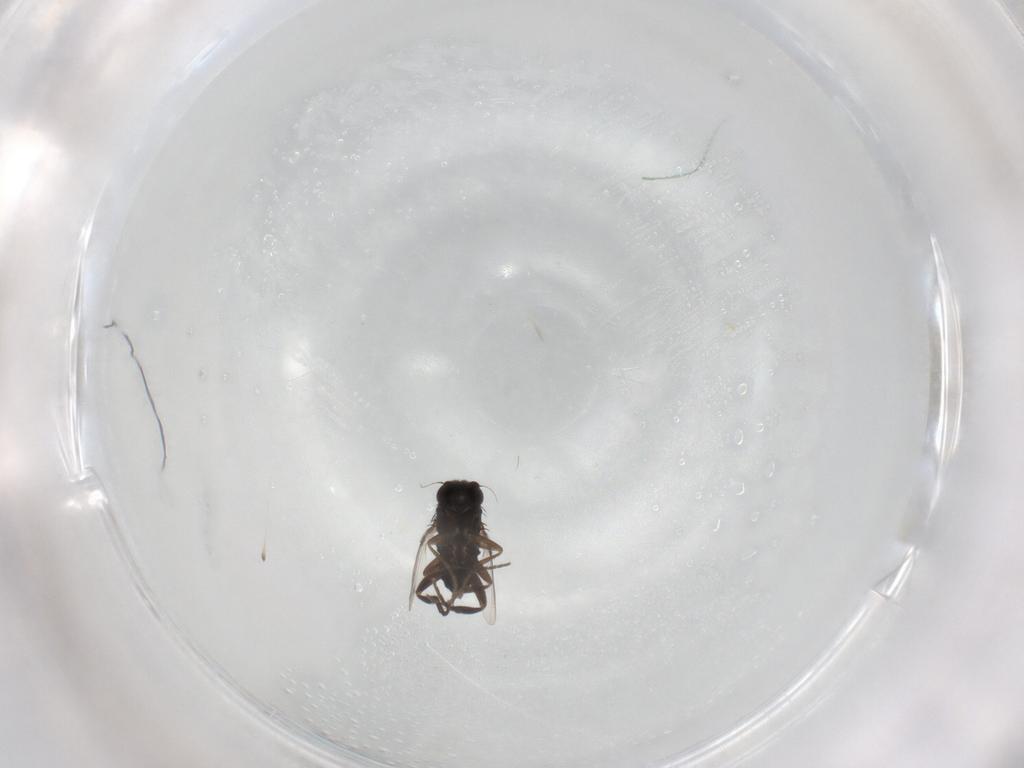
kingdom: Animalia
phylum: Arthropoda
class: Insecta
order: Diptera
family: Phoridae
